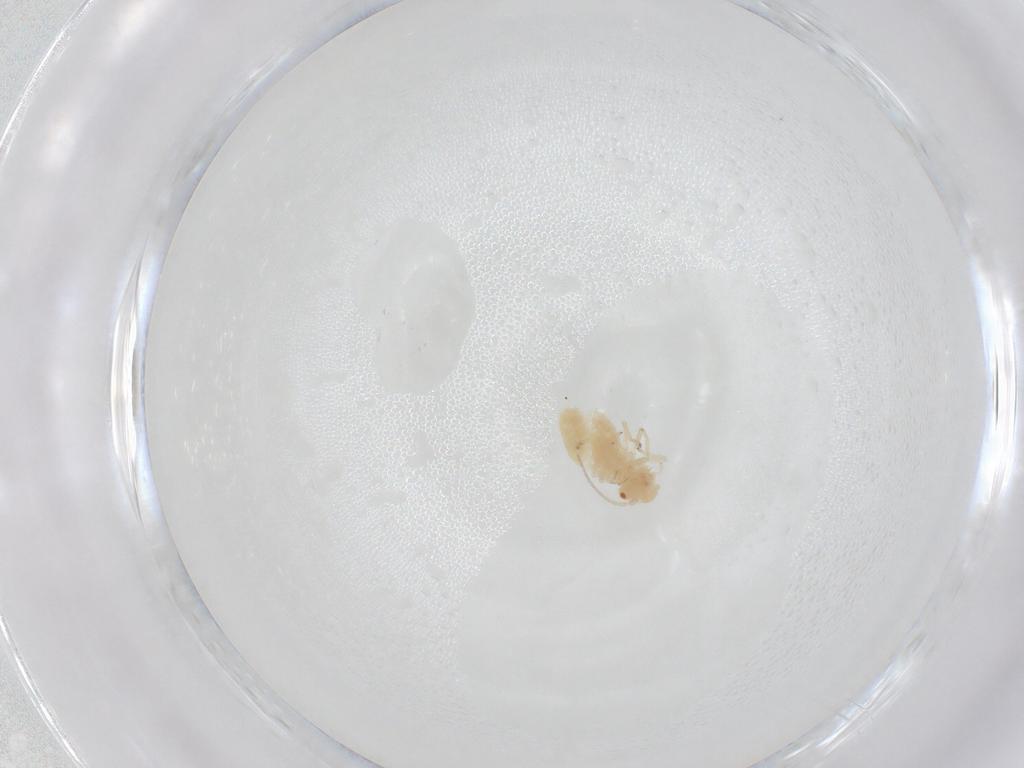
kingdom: Animalia
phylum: Arthropoda
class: Insecta
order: Psocodea
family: Caeciliusidae
